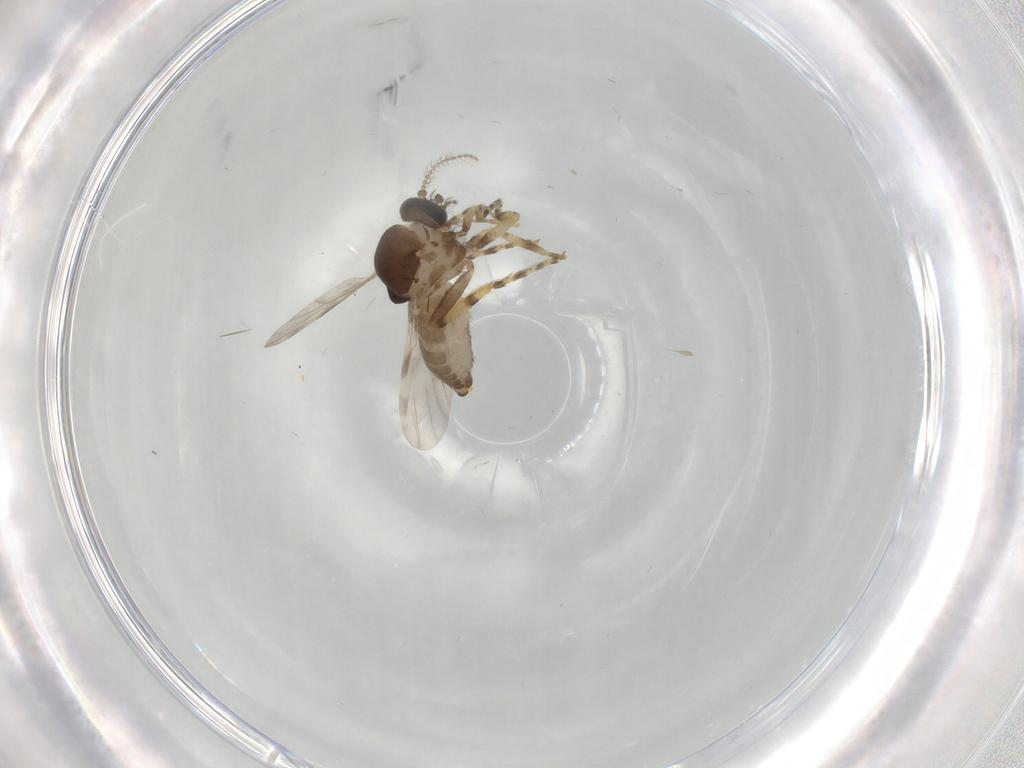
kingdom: Animalia
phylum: Arthropoda
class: Insecta
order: Diptera
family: Ceratopogonidae
